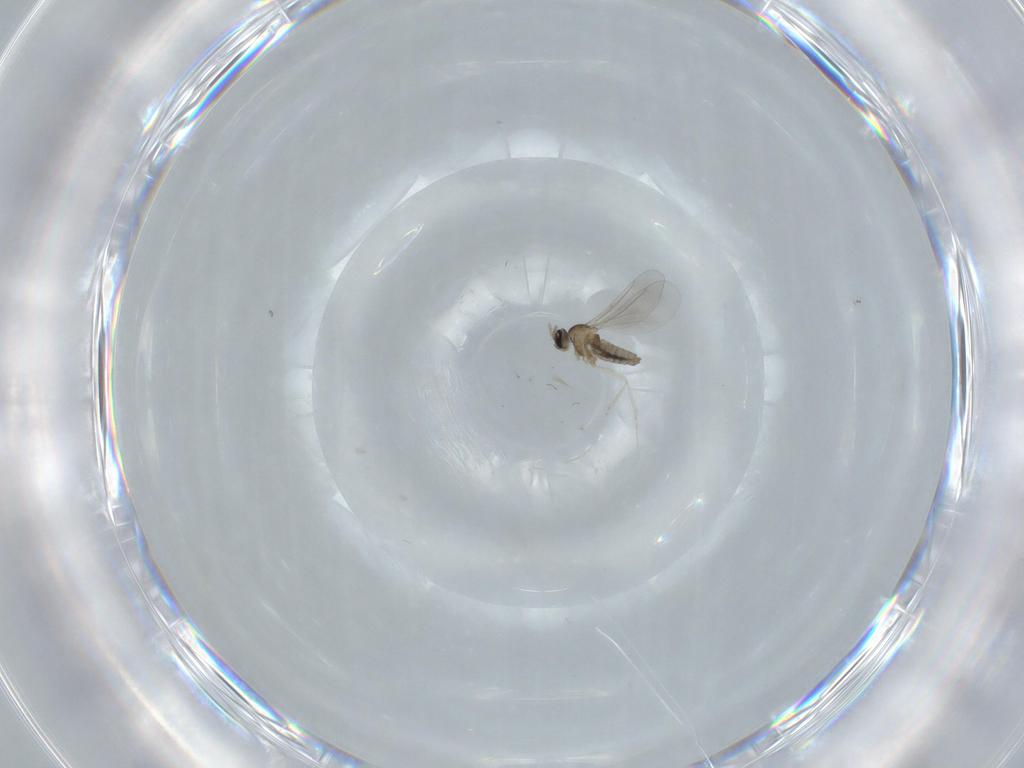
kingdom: Animalia
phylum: Arthropoda
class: Insecta
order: Diptera
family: Cecidomyiidae
